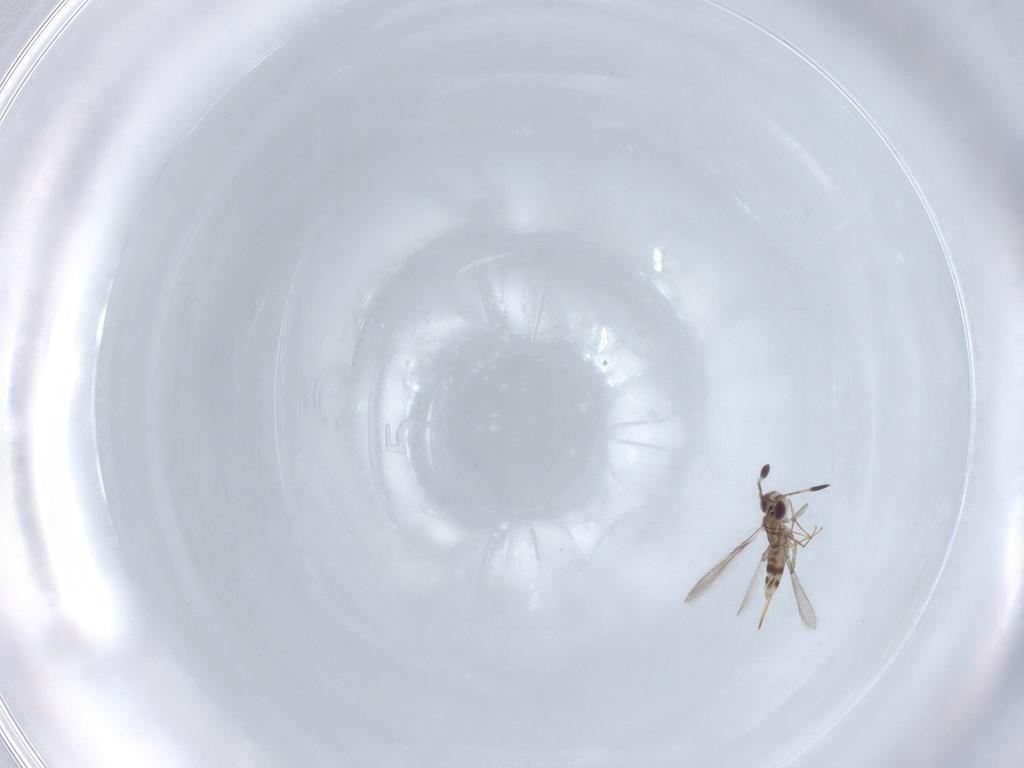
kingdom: Animalia
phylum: Arthropoda
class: Insecta
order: Hymenoptera
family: Mymaridae
